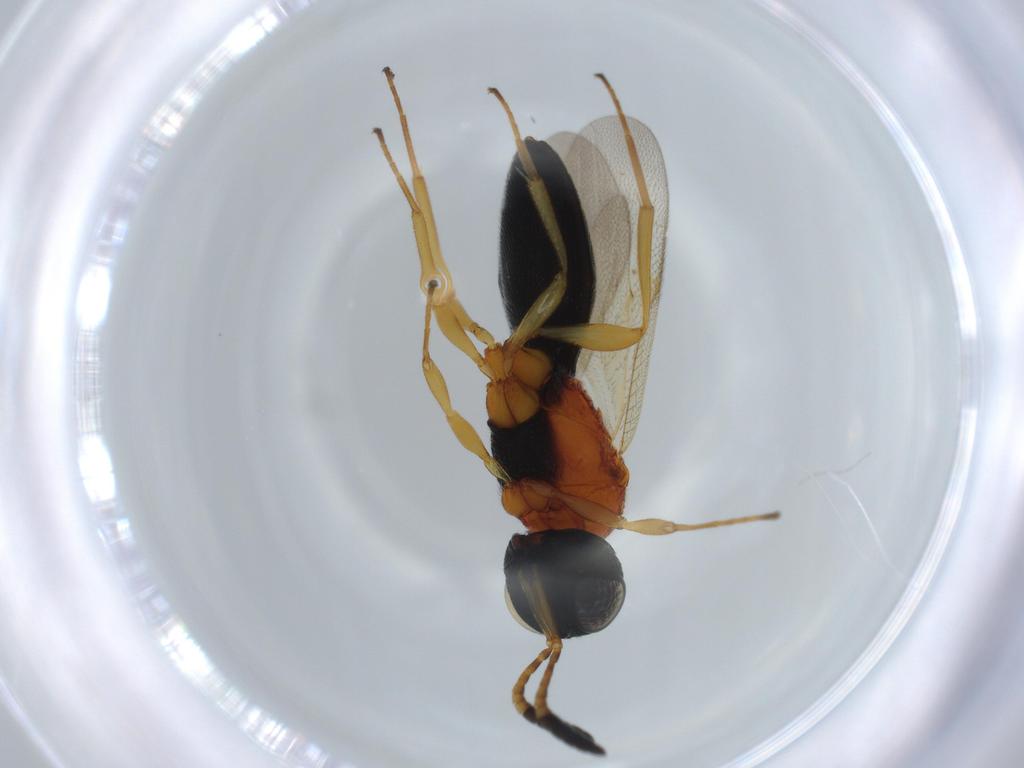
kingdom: Animalia
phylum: Arthropoda
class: Insecta
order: Hymenoptera
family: Scelionidae
